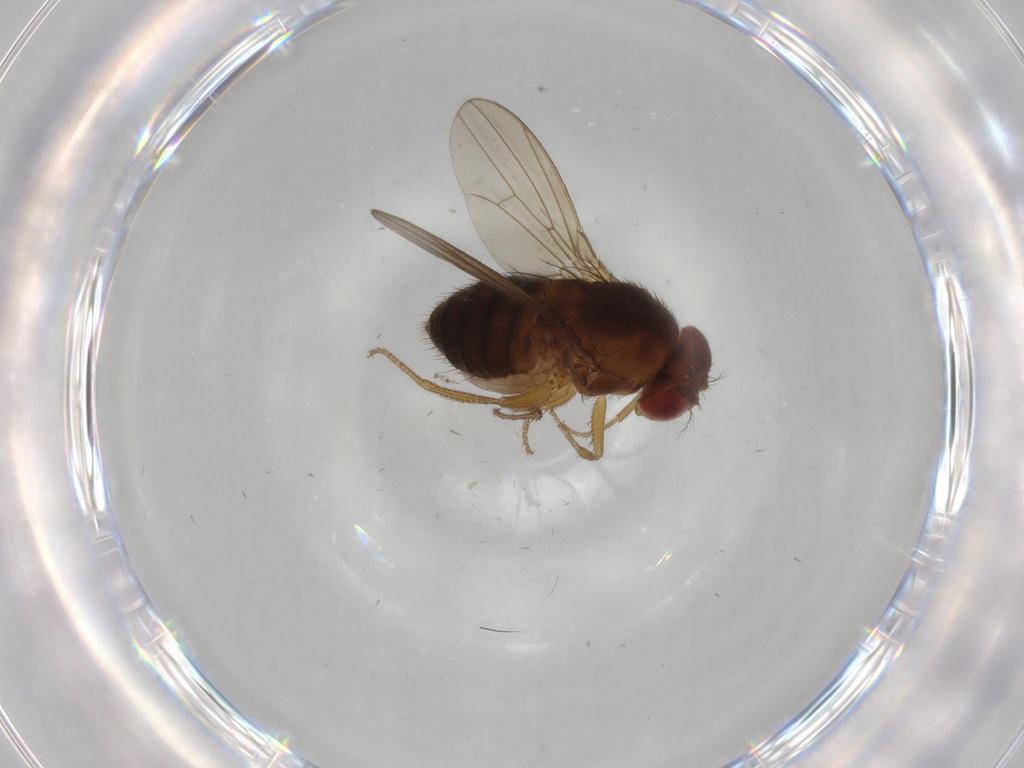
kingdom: Animalia
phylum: Arthropoda
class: Insecta
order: Diptera
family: Drosophilidae
